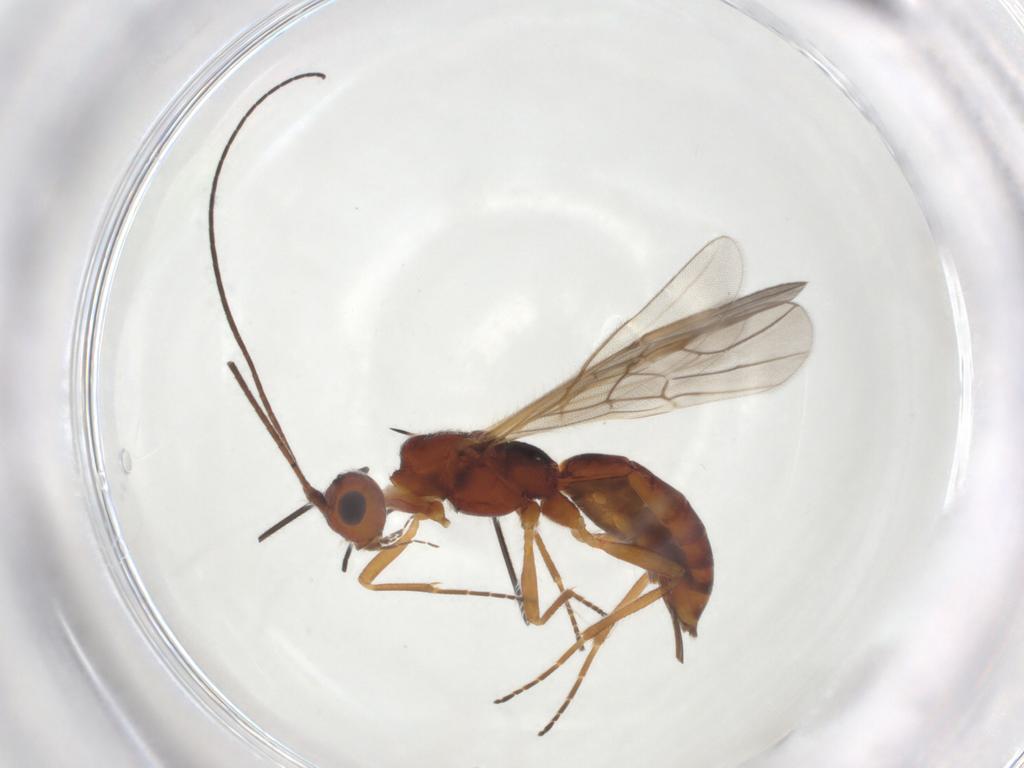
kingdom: Animalia
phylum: Arthropoda
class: Insecta
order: Hymenoptera
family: Braconidae
